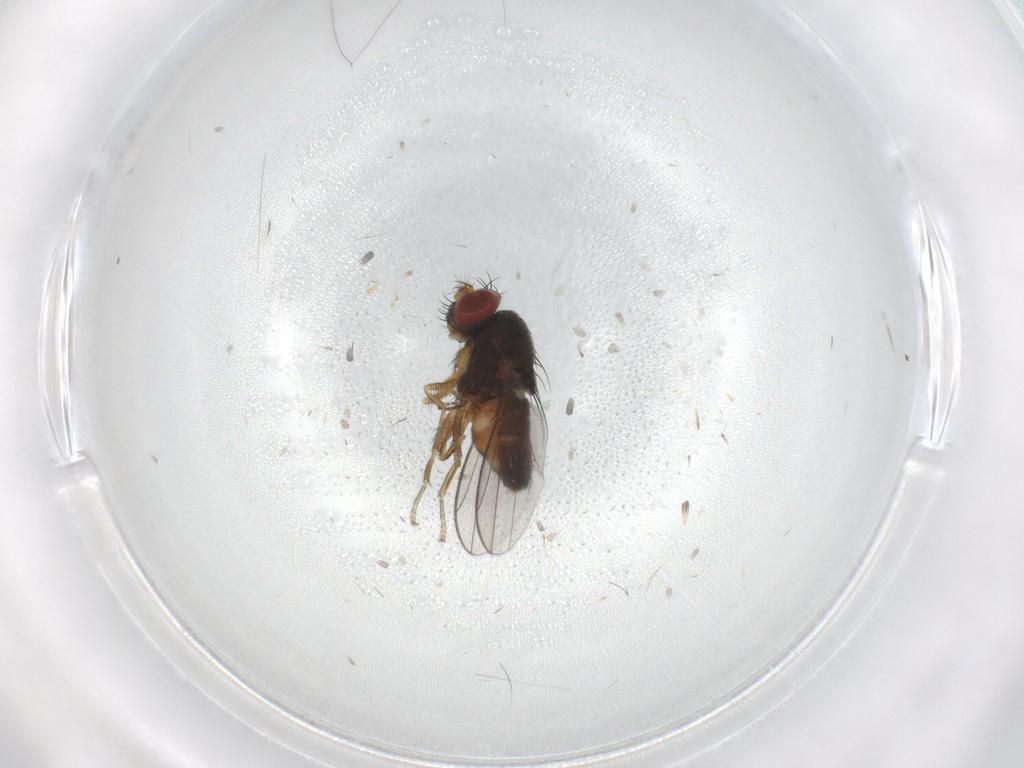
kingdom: Animalia
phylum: Arthropoda
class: Insecta
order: Diptera
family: Cecidomyiidae
